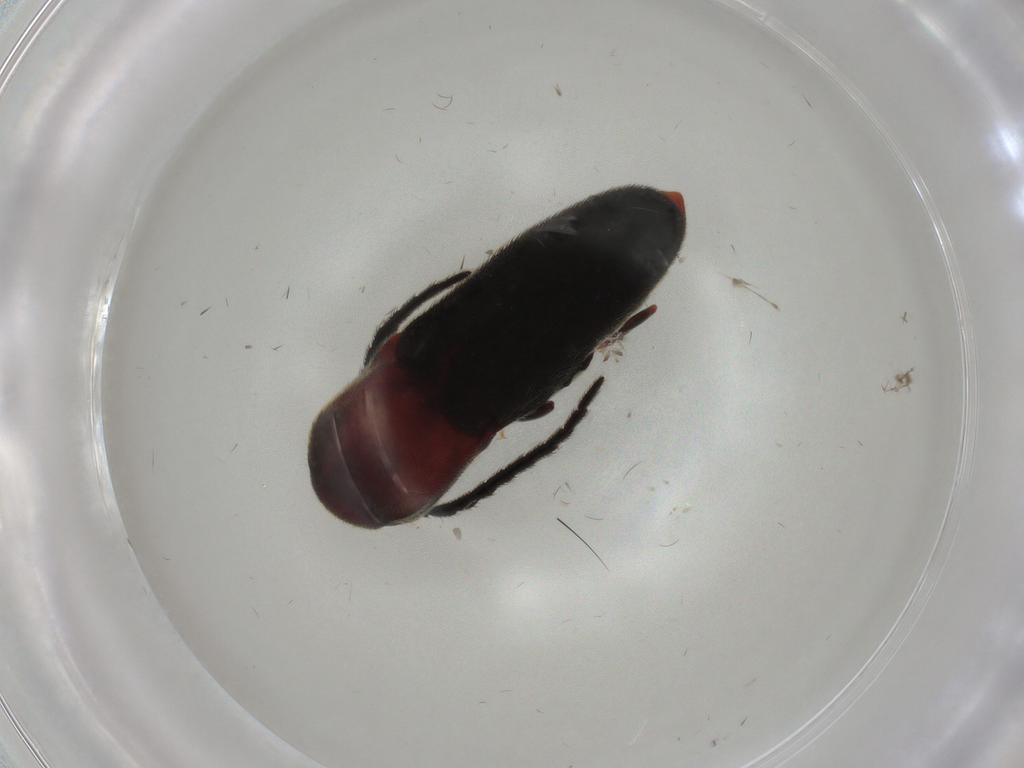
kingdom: Animalia
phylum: Arthropoda
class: Insecta
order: Coleoptera
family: Eucnemidae
